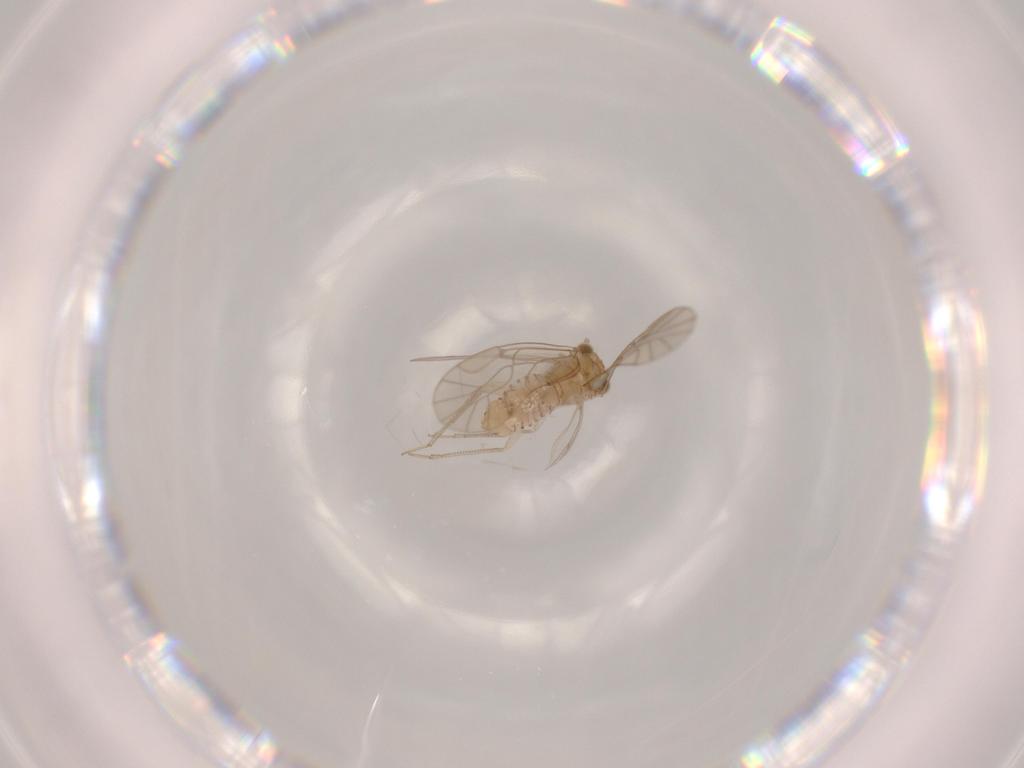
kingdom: Animalia
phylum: Arthropoda
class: Insecta
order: Psocodea
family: Lachesillidae
